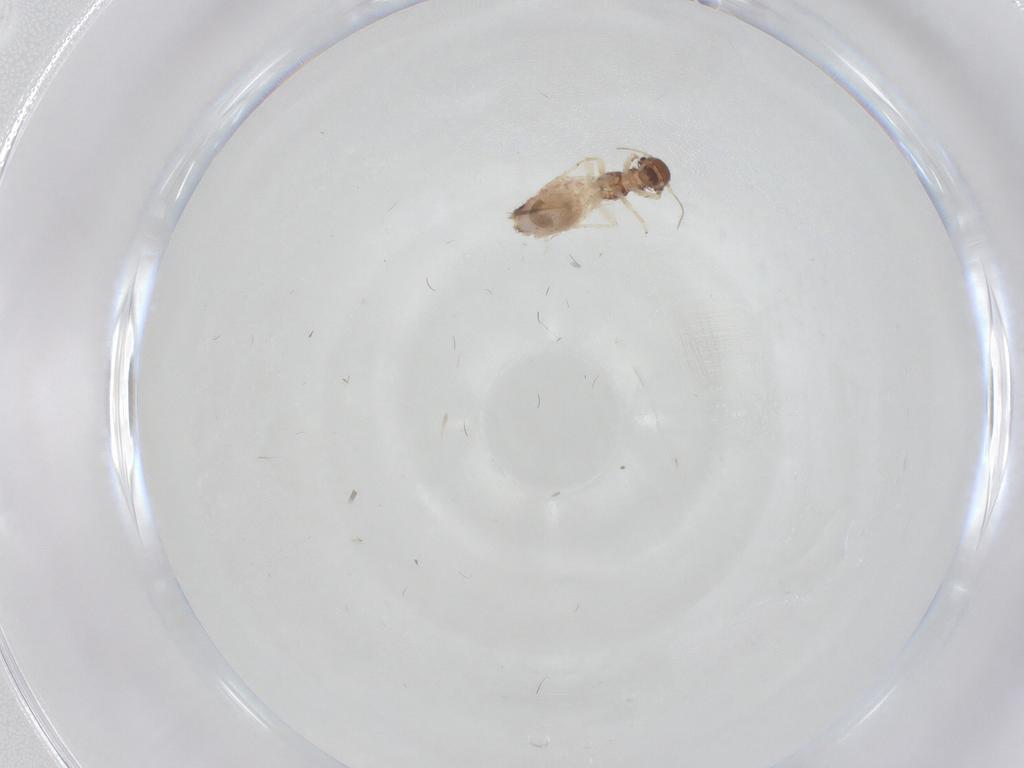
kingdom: Animalia
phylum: Arthropoda
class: Insecta
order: Psocodea
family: Archipsocidae
